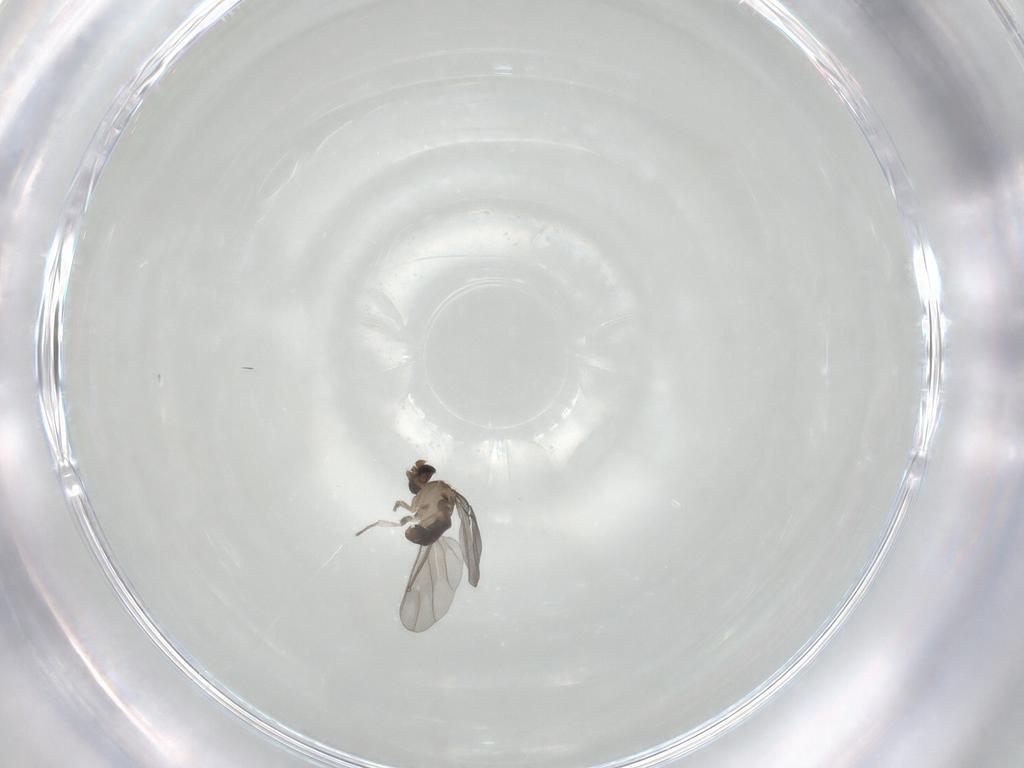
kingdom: Animalia
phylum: Arthropoda
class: Insecta
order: Diptera
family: Phoridae
